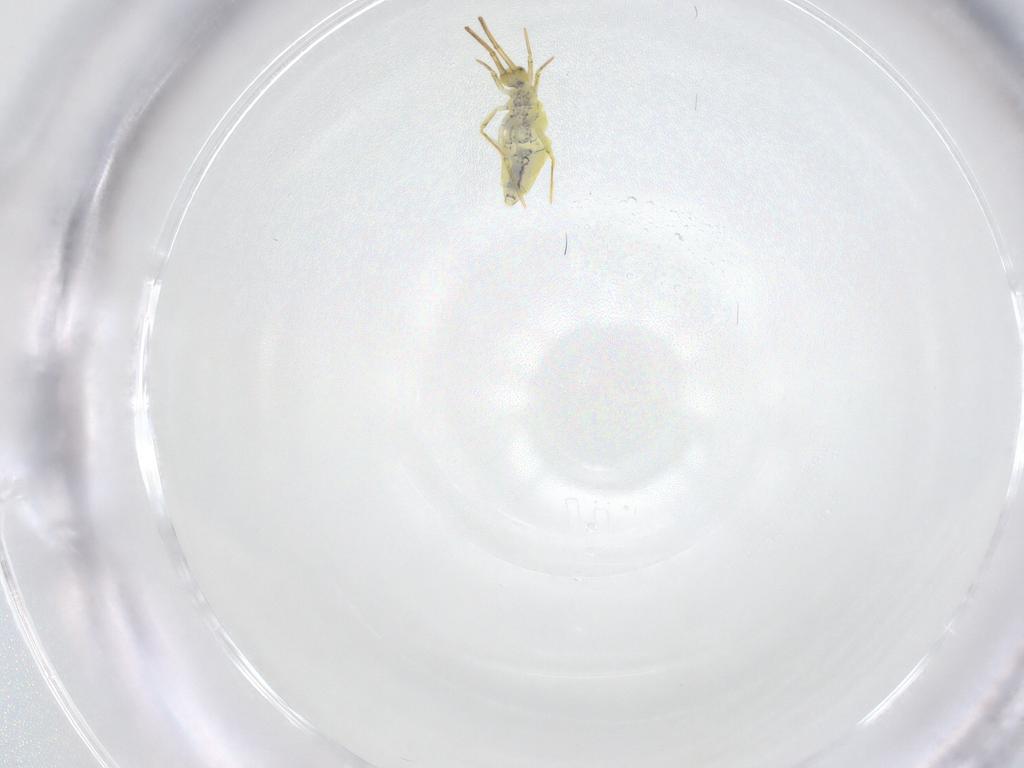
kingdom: Animalia
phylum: Arthropoda
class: Collembola
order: Entomobryomorpha
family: Entomobryidae
